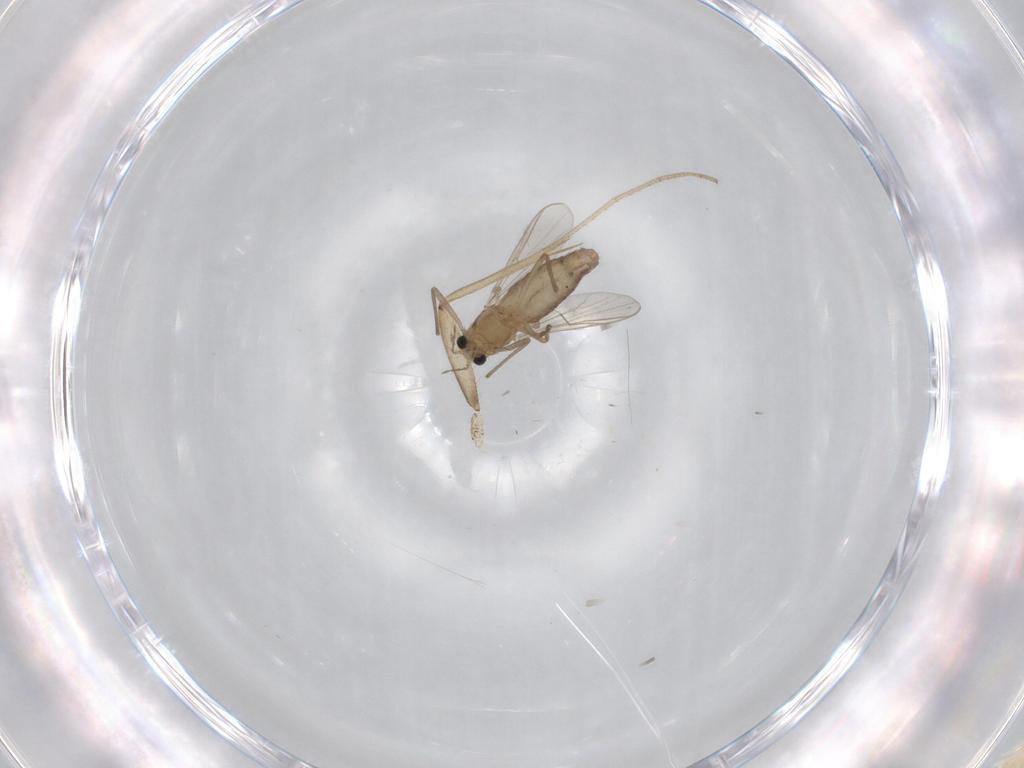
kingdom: Animalia
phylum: Arthropoda
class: Insecta
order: Diptera
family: Chironomidae
